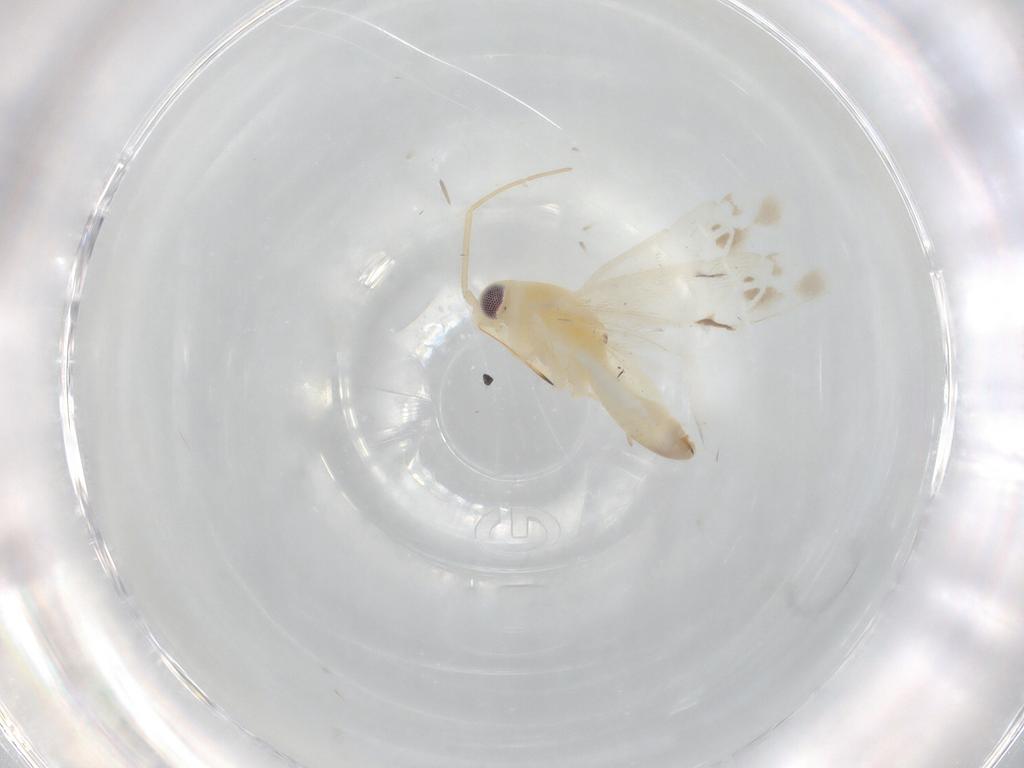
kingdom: Animalia
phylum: Arthropoda
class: Insecta
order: Hemiptera
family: Miridae
